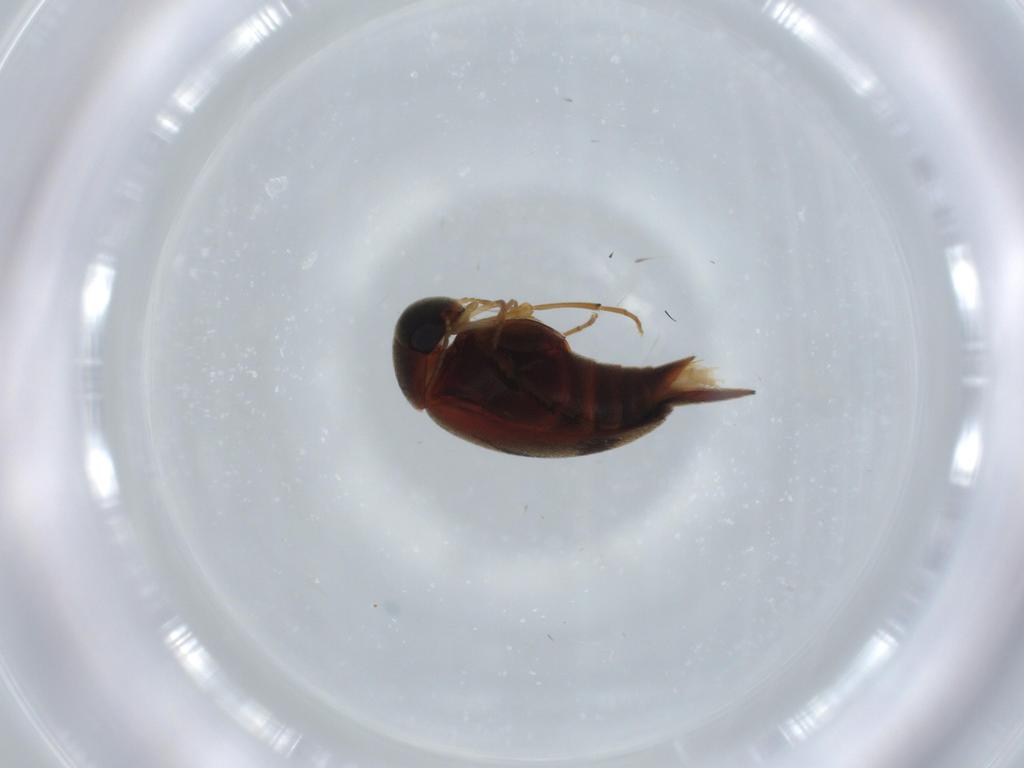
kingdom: Animalia
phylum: Arthropoda
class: Insecta
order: Coleoptera
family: Mordellidae
